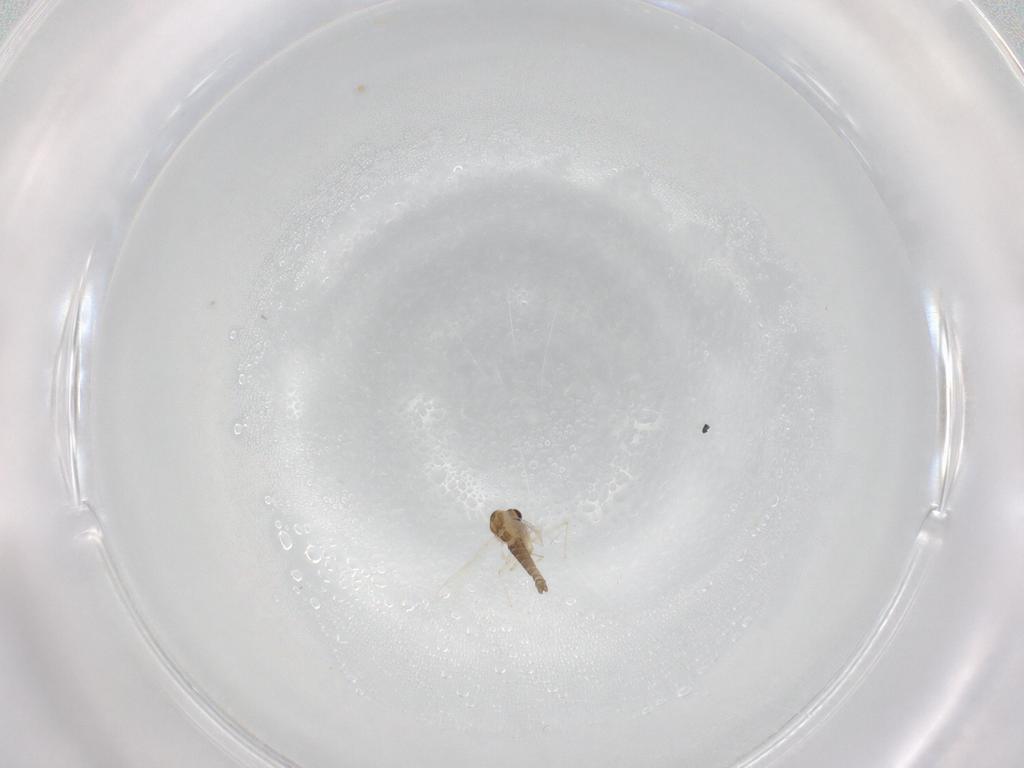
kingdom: Animalia
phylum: Arthropoda
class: Insecta
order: Diptera
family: Chironomidae
